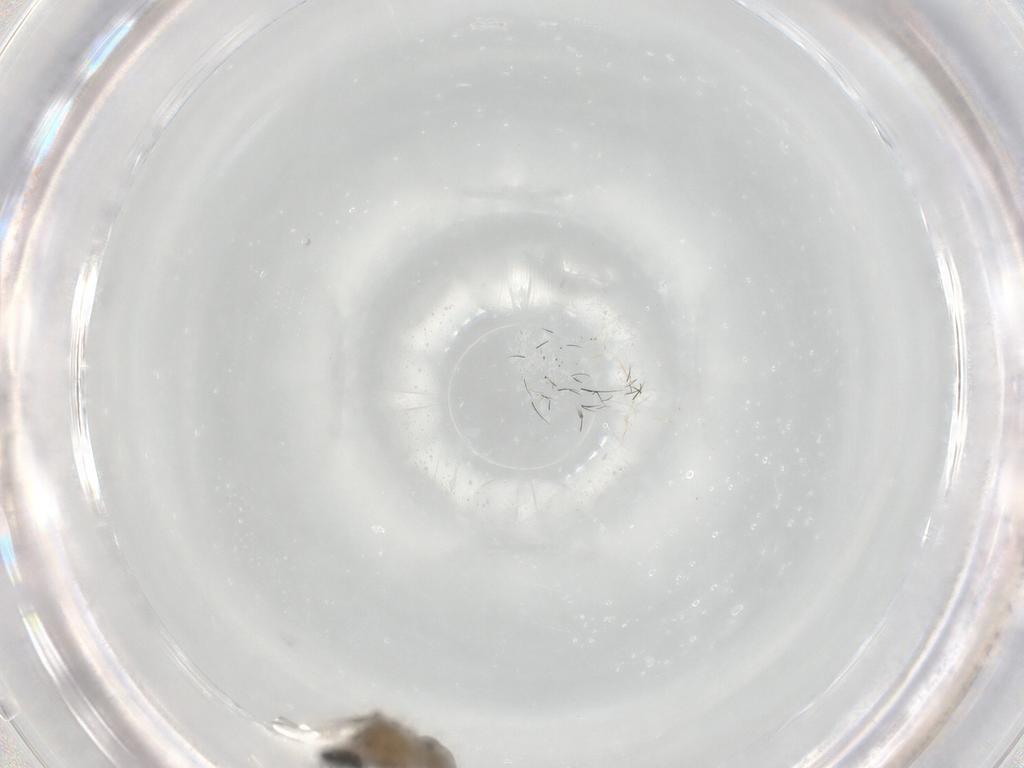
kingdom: Animalia
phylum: Arthropoda
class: Insecta
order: Diptera
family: Cecidomyiidae
